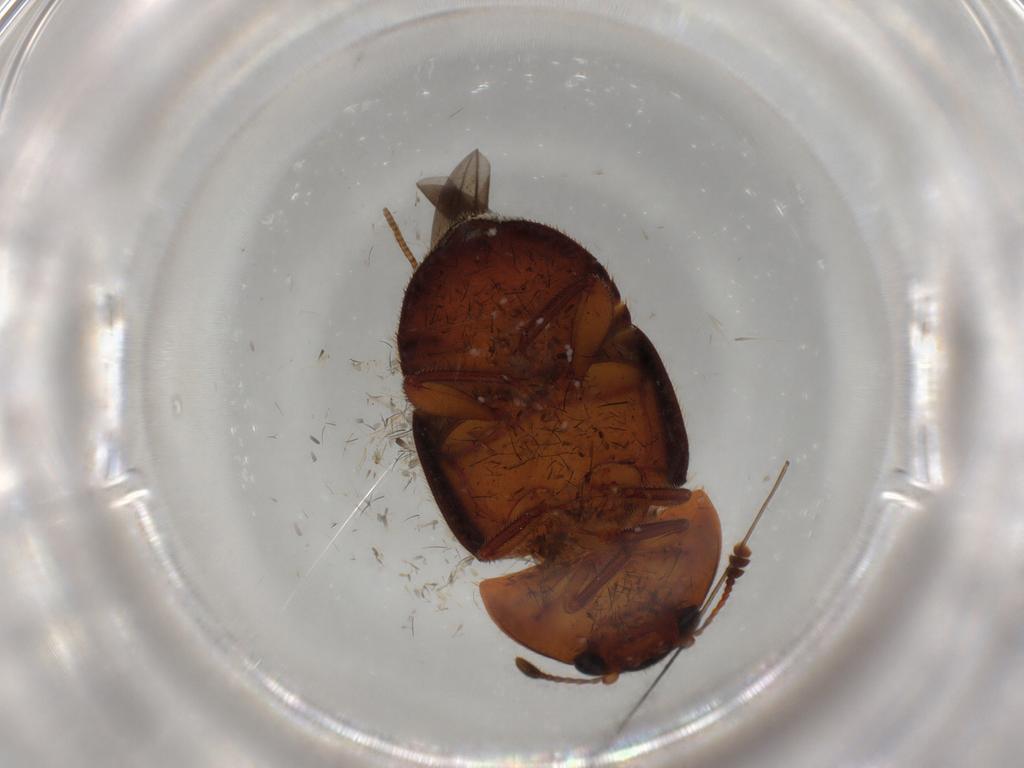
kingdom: Animalia
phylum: Arthropoda
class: Insecta
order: Coleoptera
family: Nitidulidae
